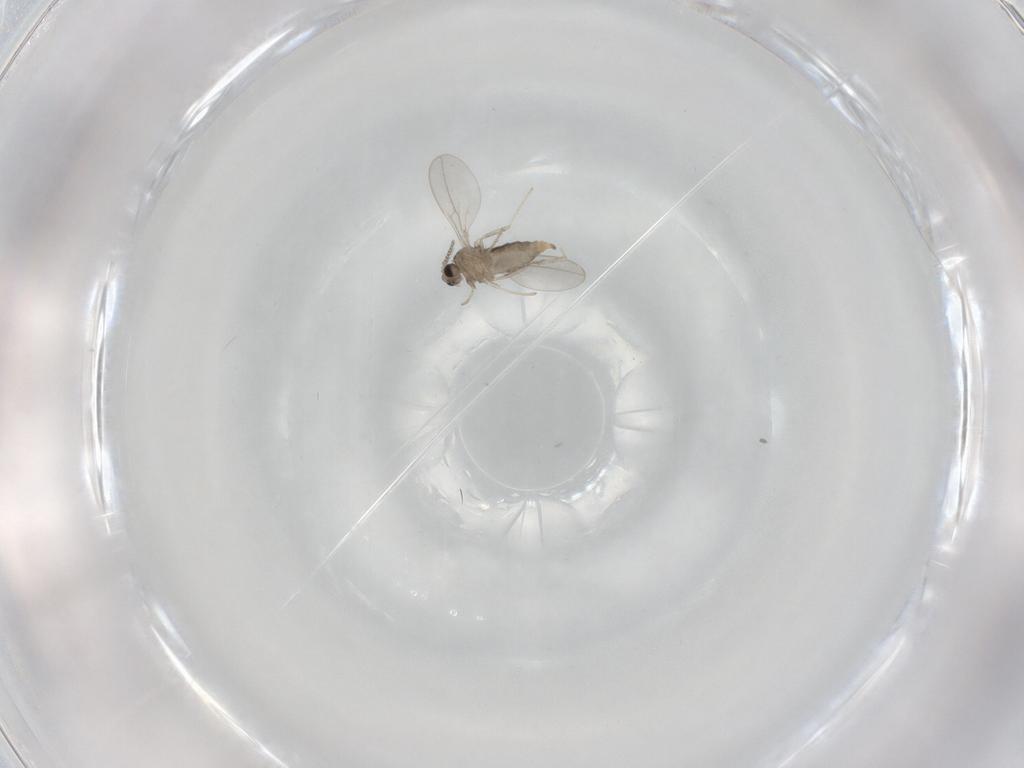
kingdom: Animalia
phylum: Arthropoda
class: Insecta
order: Diptera
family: Cecidomyiidae
